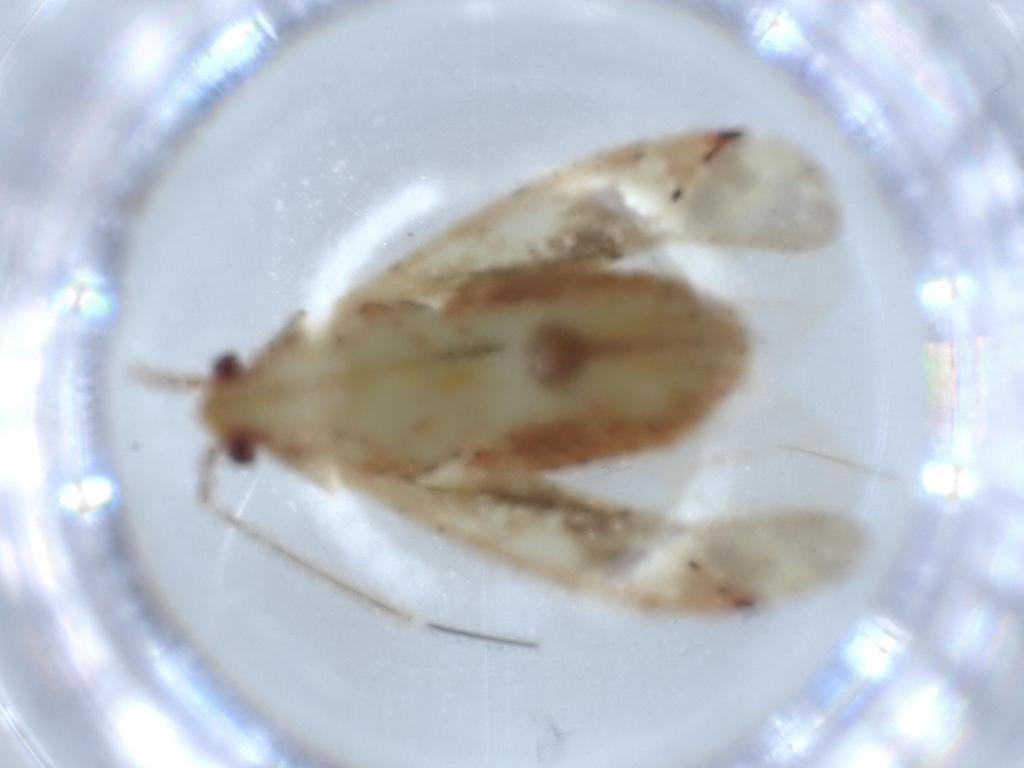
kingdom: Animalia
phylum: Arthropoda
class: Insecta
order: Hemiptera
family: Miridae
